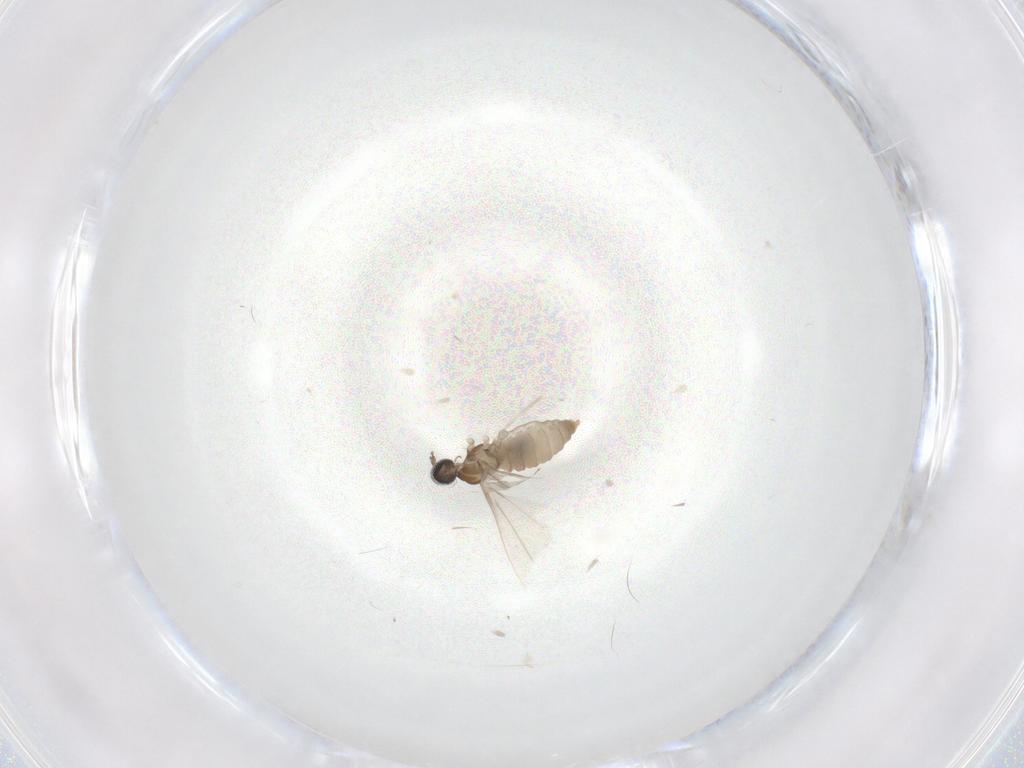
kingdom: Animalia
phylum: Arthropoda
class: Insecta
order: Diptera
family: Cecidomyiidae
